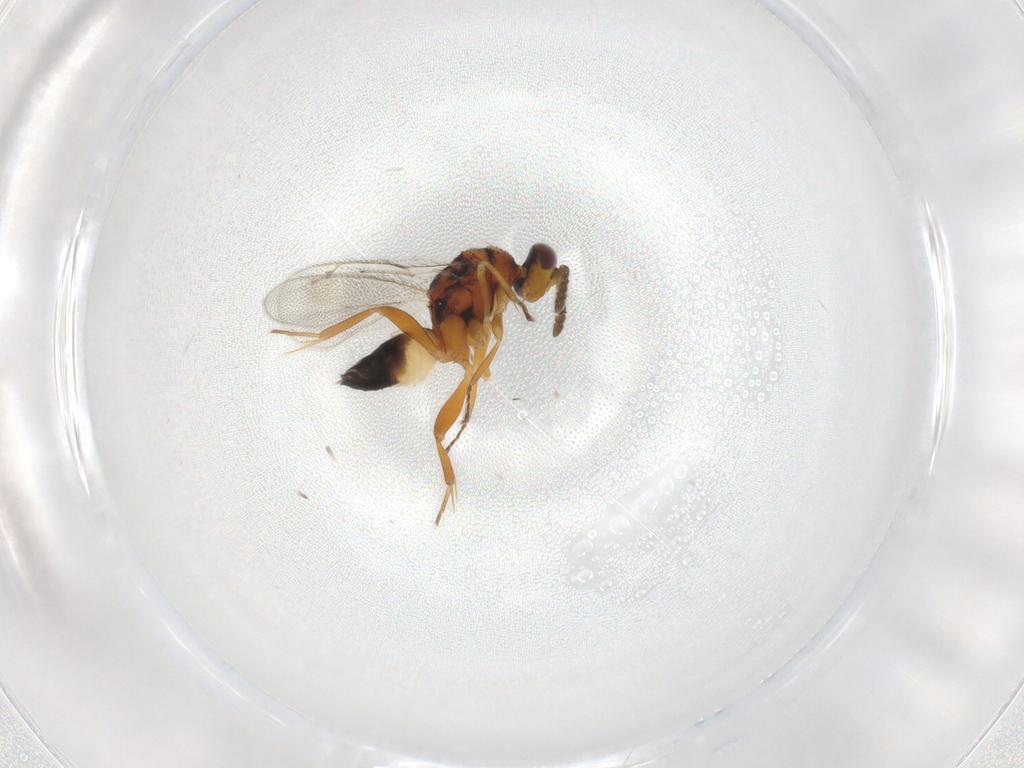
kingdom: Animalia
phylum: Arthropoda
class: Insecta
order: Hymenoptera
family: Eulophidae
